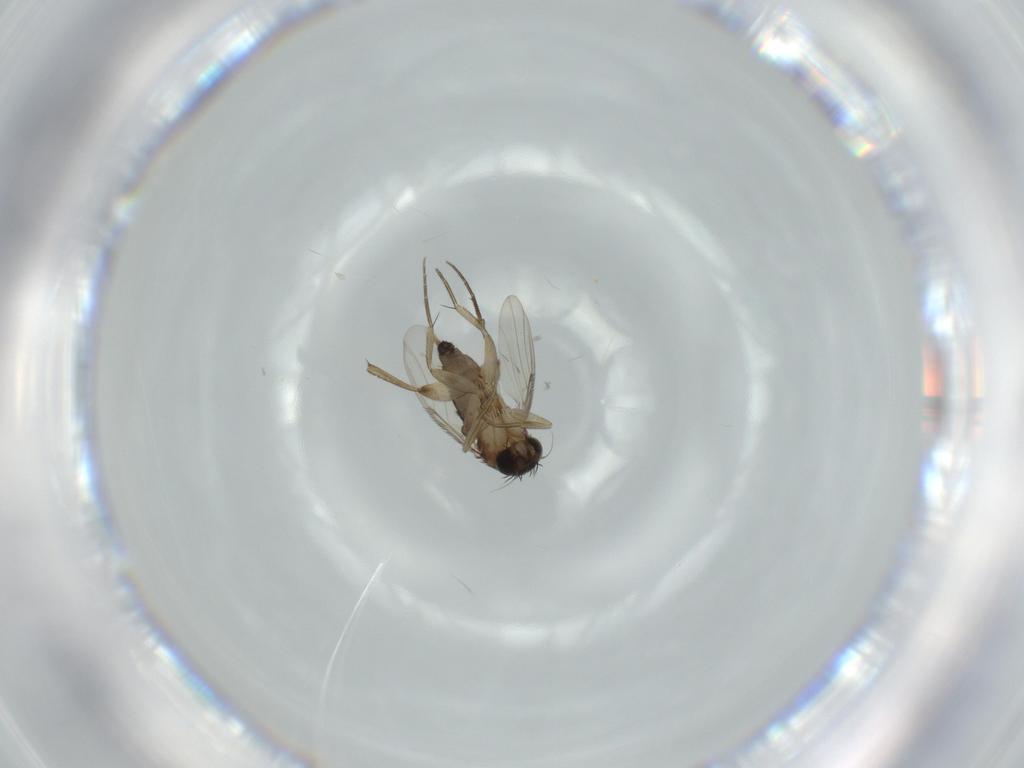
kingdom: Animalia
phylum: Arthropoda
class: Insecta
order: Diptera
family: Phoridae
